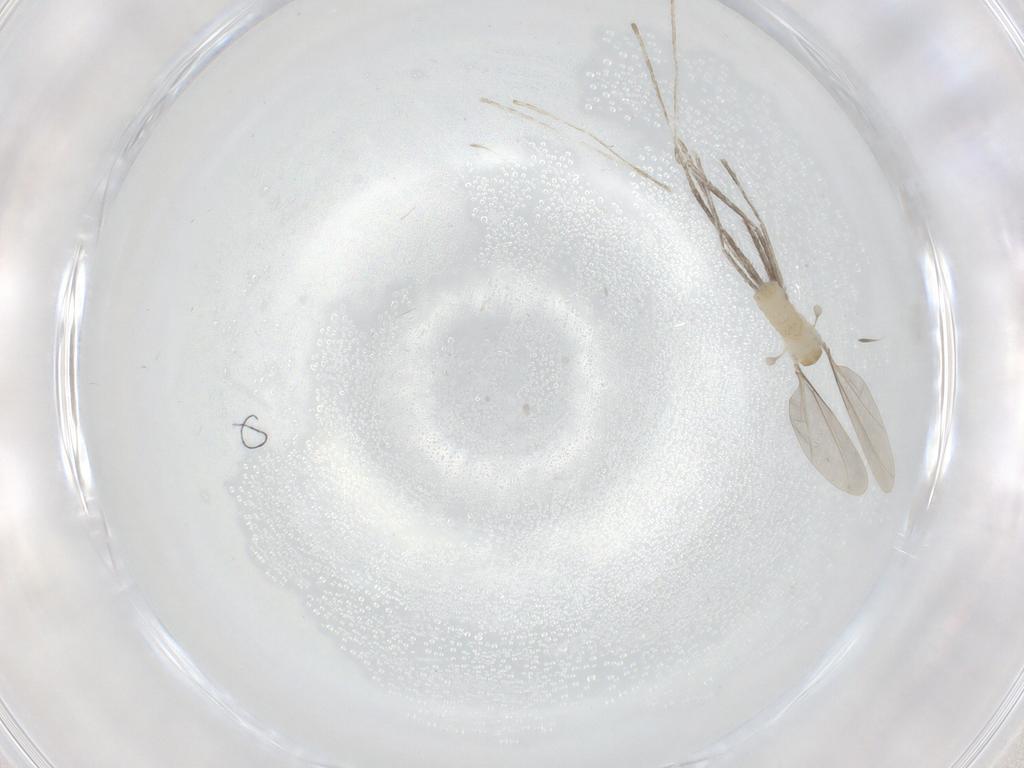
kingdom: Animalia
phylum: Arthropoda
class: Insecta
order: Diptera
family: Cecidomyiidae
